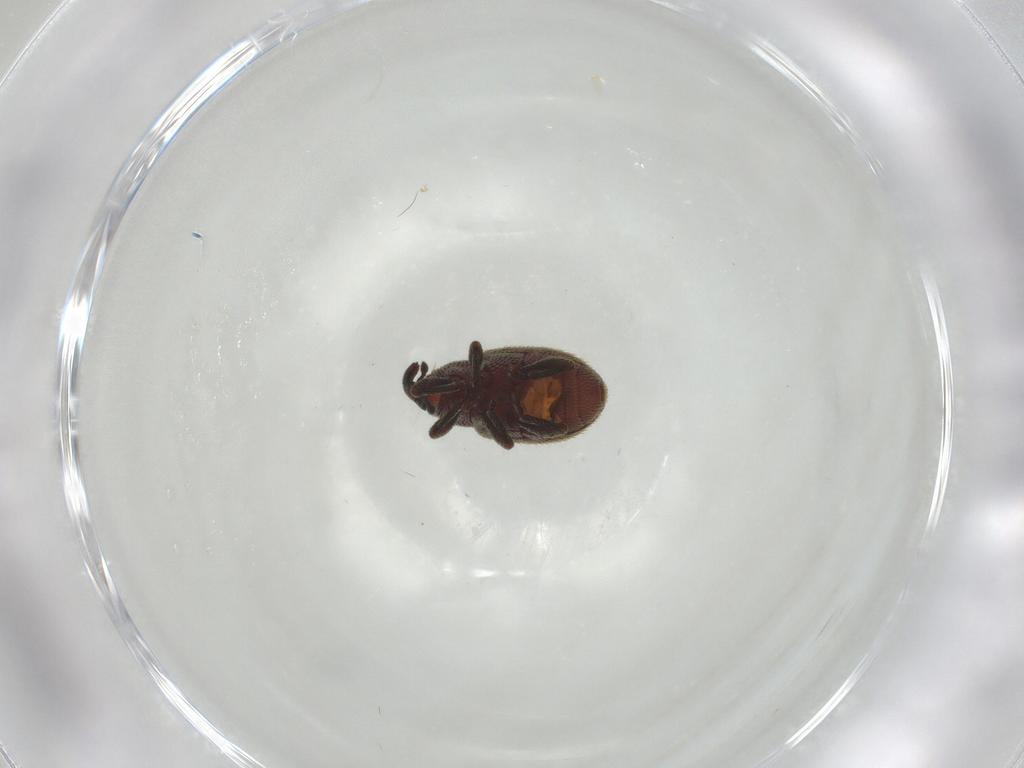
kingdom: Animalia
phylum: Arthropoda
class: Insecta
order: Coleoptera
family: Curculionidae
